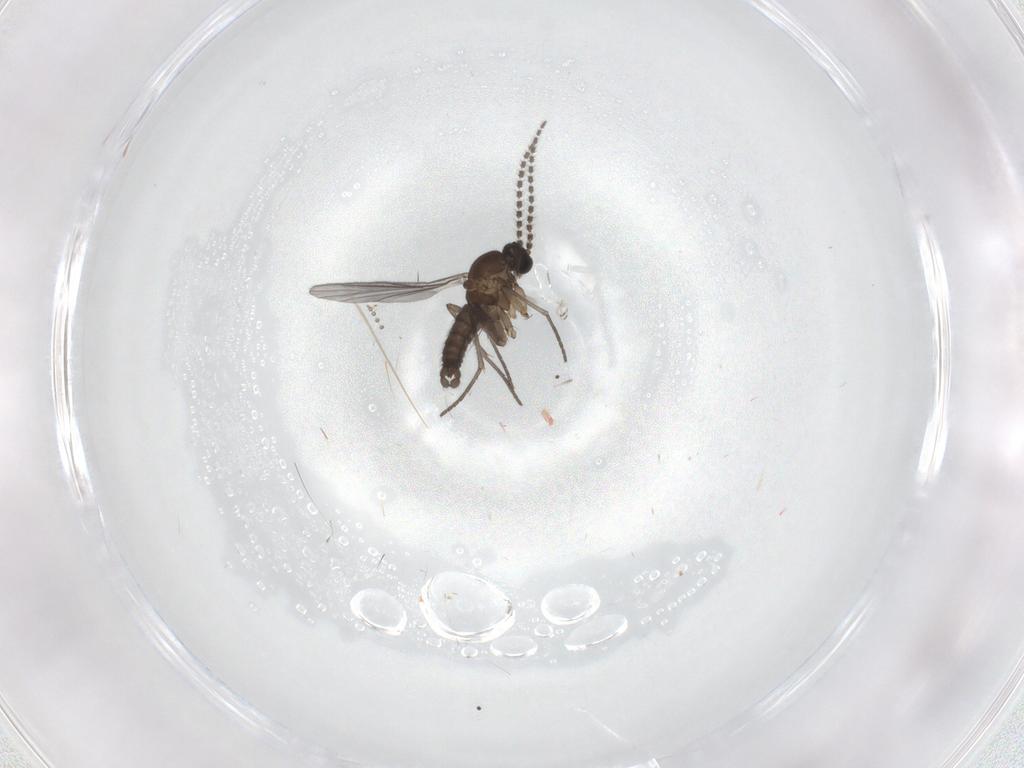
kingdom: Animalia
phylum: Arthropoda
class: Insecta
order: Diptera
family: Sciaridae
